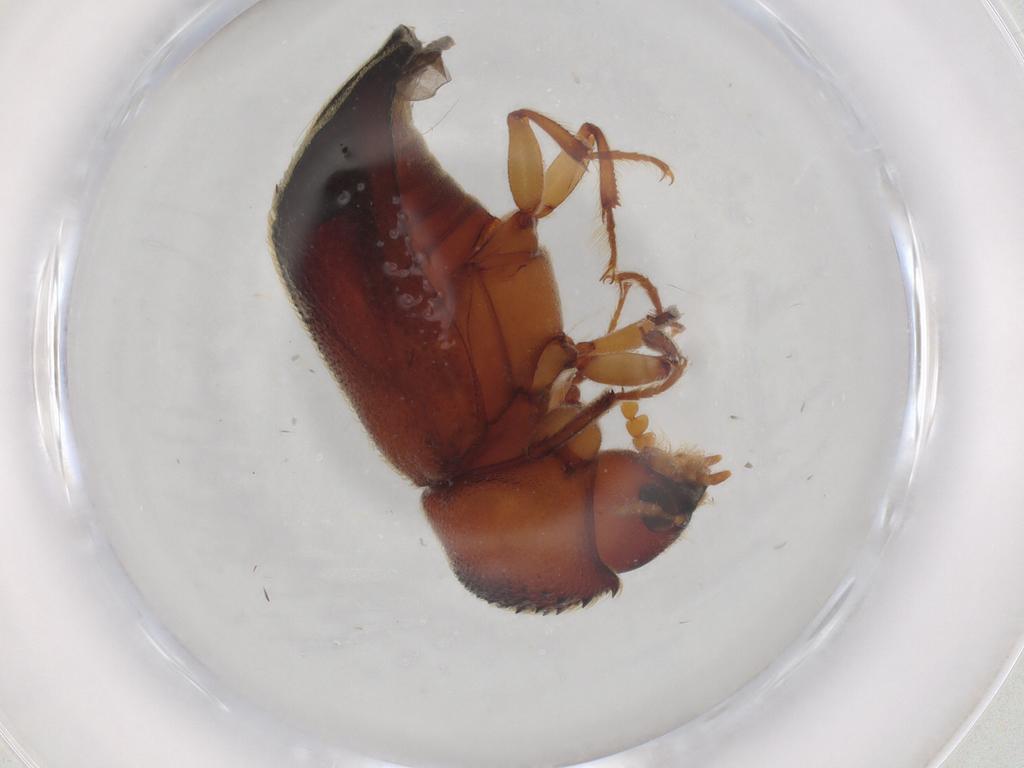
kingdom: Animalia
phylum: Arthropoda
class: Insecta
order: Coleoptera
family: Bostrichidae
